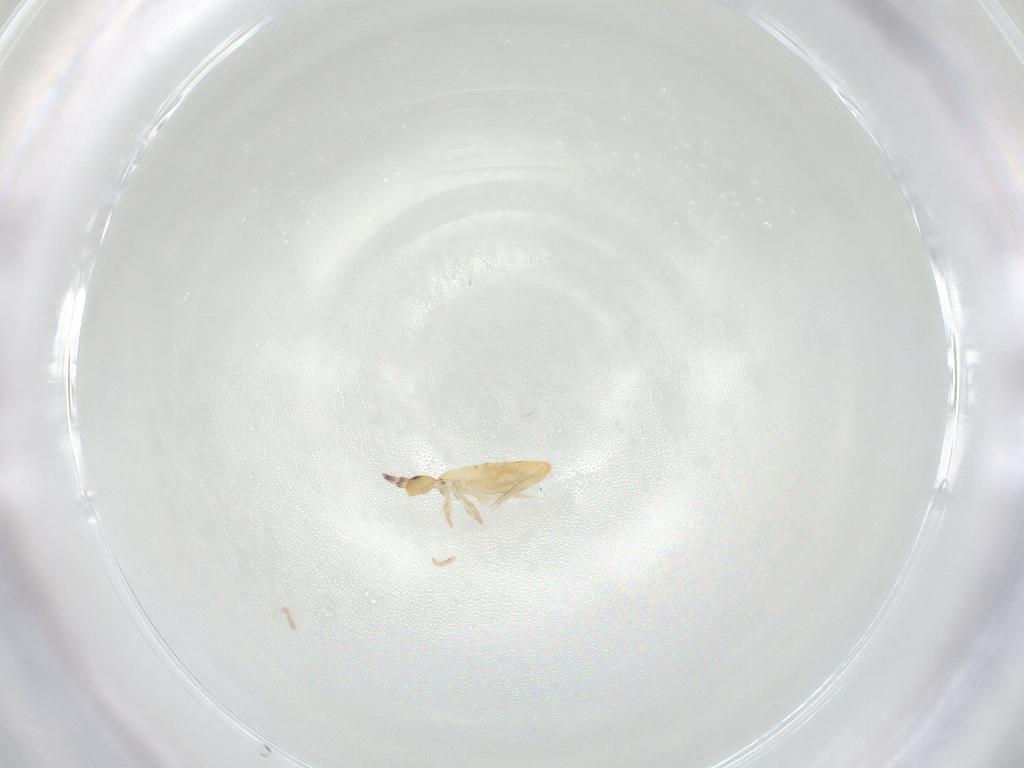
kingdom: Animalia
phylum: Arthropoda
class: Collembola
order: Entomobryomorpha
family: Entomobryidae
